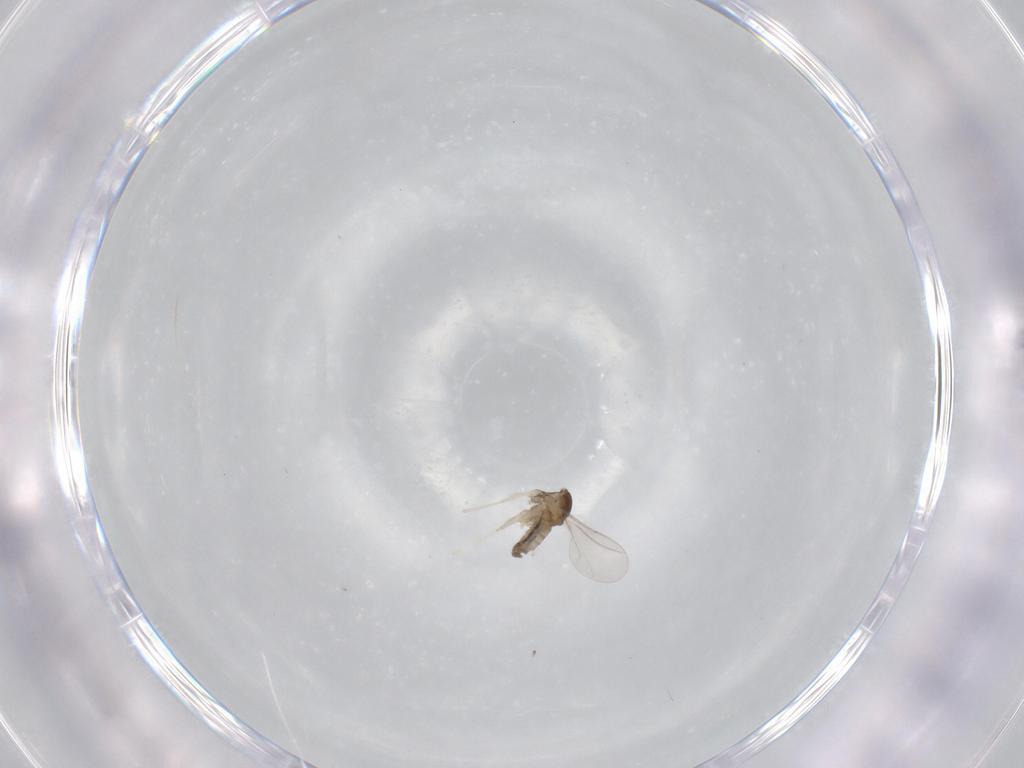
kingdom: Animalia
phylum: Arthropoda
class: Insecta
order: Diptera
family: Cecidomyiidae
